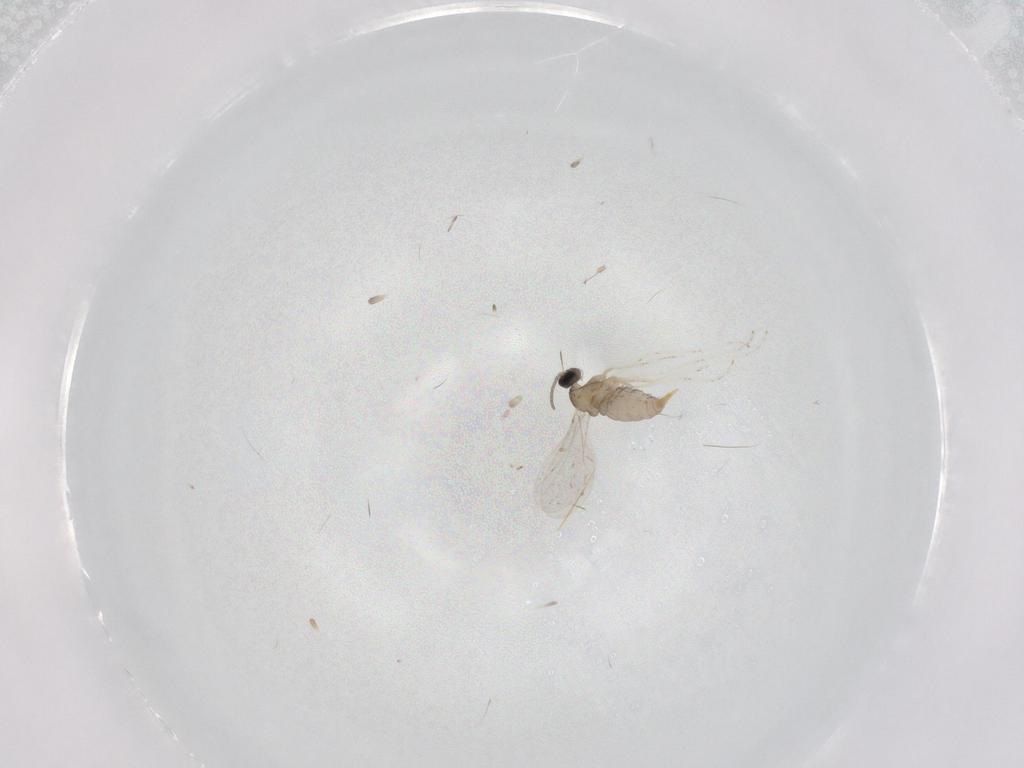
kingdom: Animalia
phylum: Arthropoda
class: Insecta
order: Diptera
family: Cecidomyiidae
